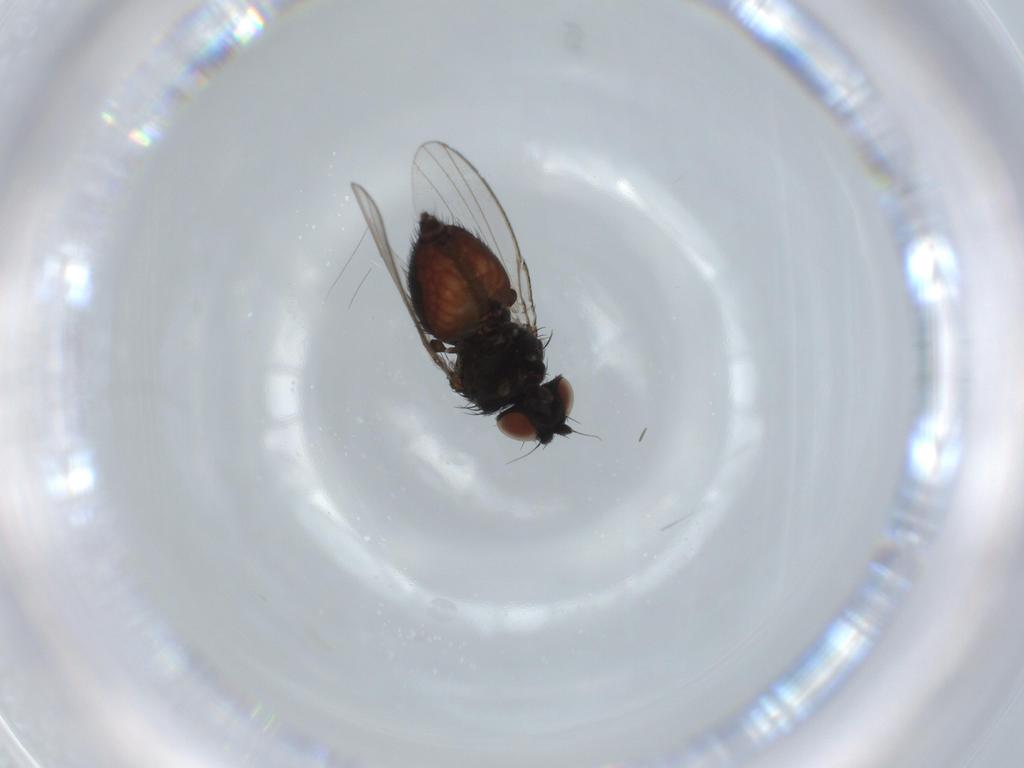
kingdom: Animalia
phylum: Arthropoda
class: Insecta
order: Diptera
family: Milichiidae
